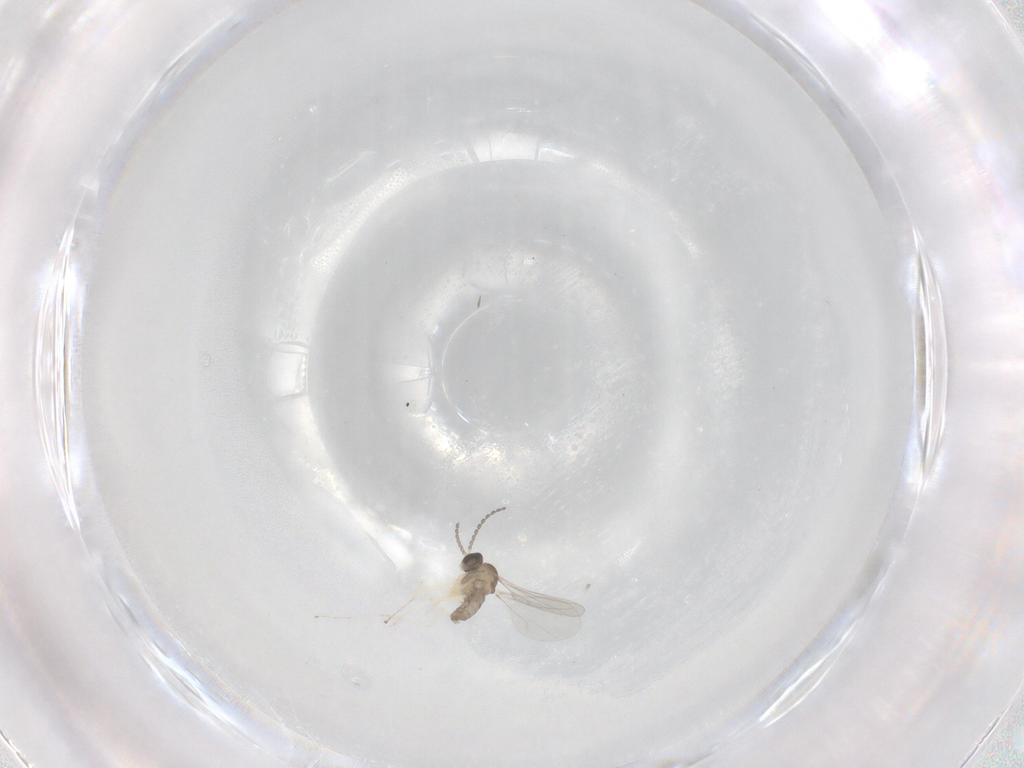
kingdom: Animalia
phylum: Arthropoda
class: Insecta
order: Diptera
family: Cecidomyiidae
